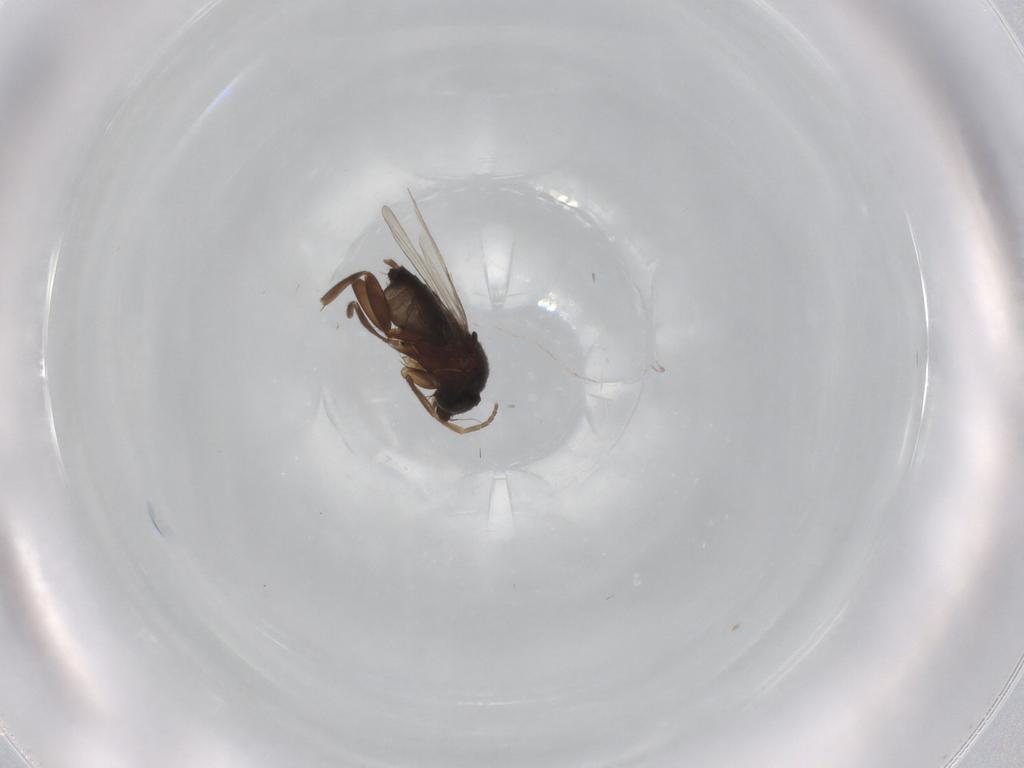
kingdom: Animalia
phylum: Arthropoda
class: Insecta
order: Diptera
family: Phoridae
